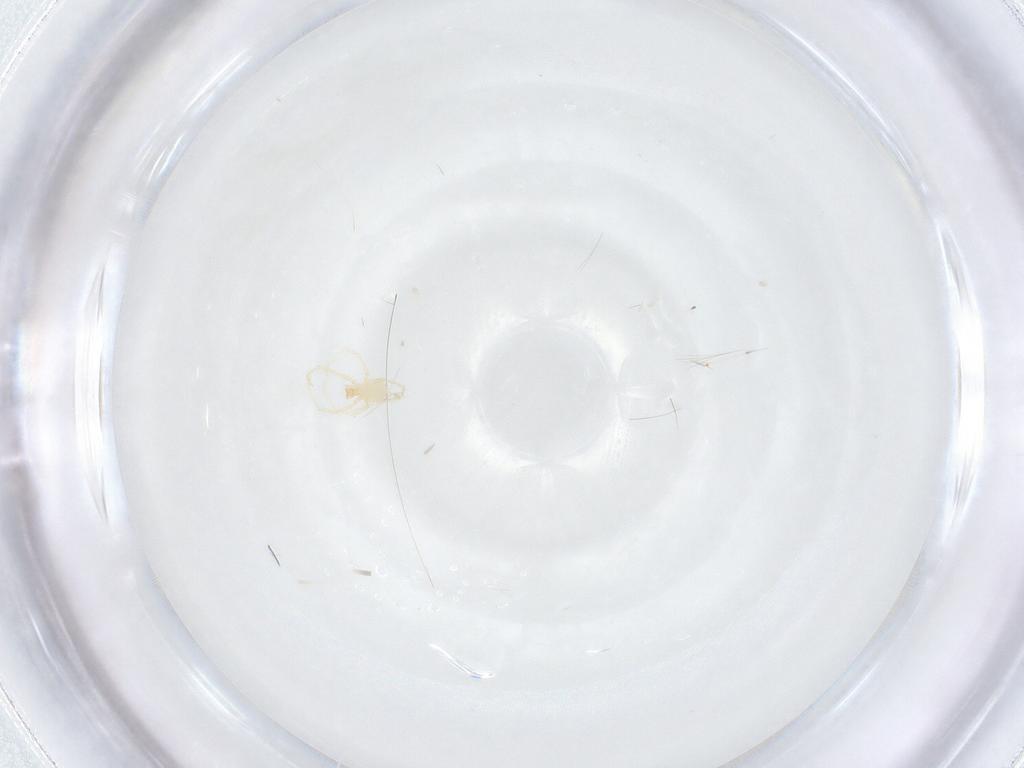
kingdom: Animalia
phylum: Arthropoda
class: Arachnida
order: Trombidiformes
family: Erythraeidae
